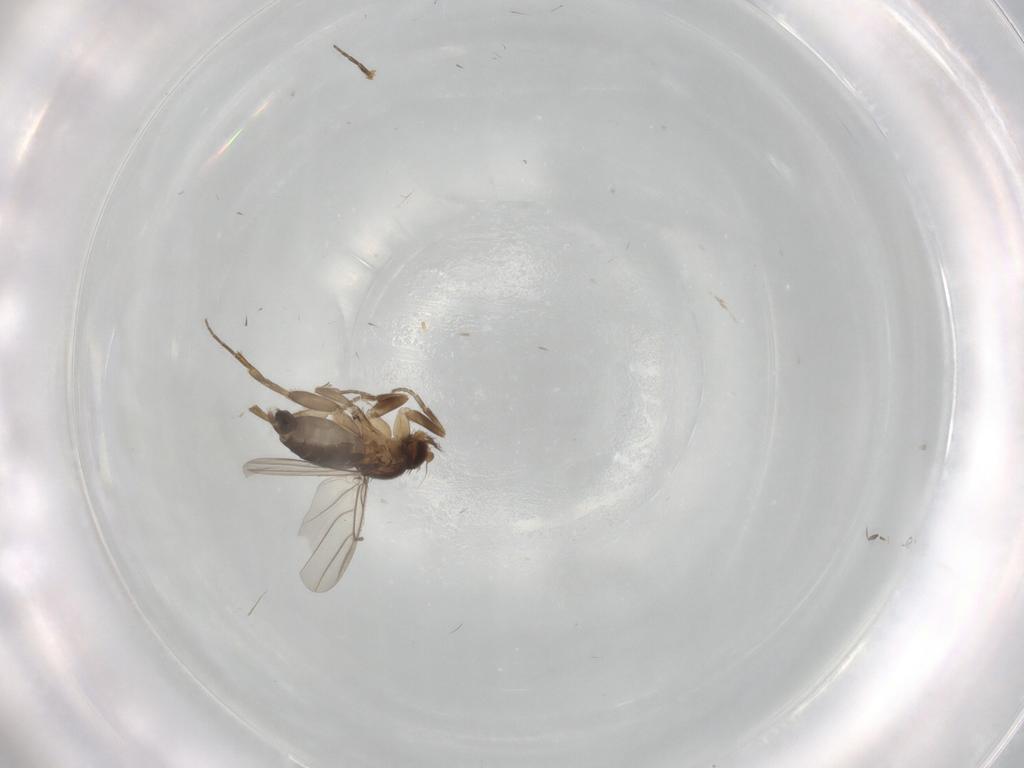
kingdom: Animalia
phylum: Arthropoda
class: Insecta
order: Diptera
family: Phoridae
